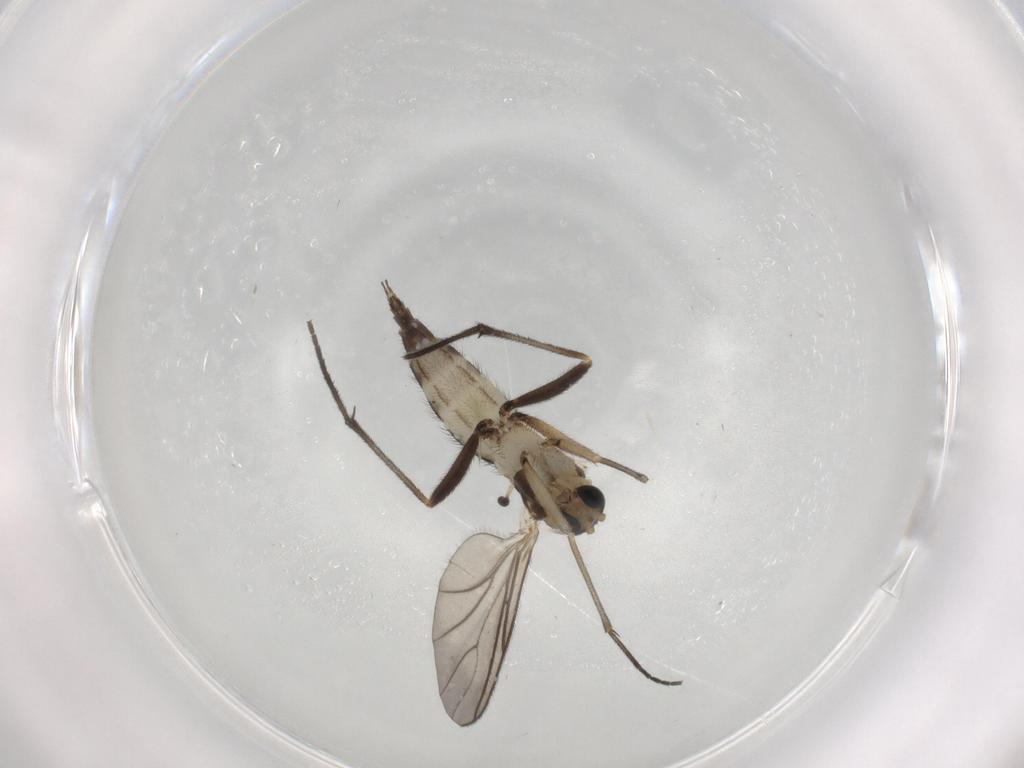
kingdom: Animalia
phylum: Arthropoda
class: Insecta
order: Diptera
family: Sciaridae
